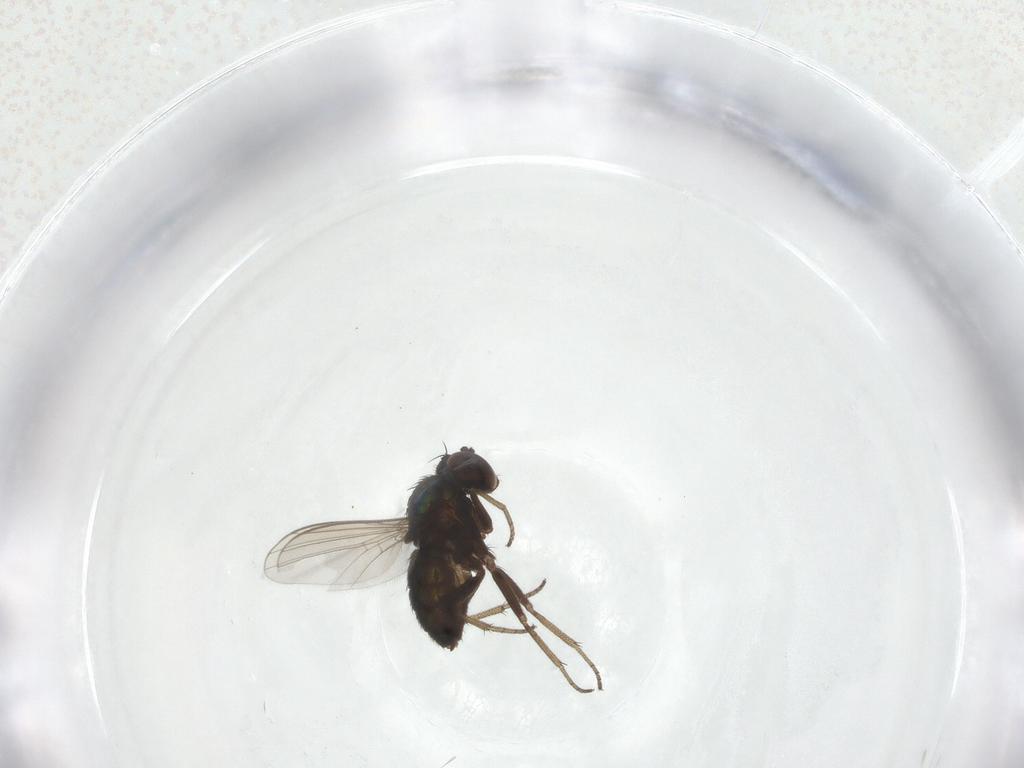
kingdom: Animalia
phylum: Arthropoda
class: Insecta
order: Diptera
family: Dolichopodidae
